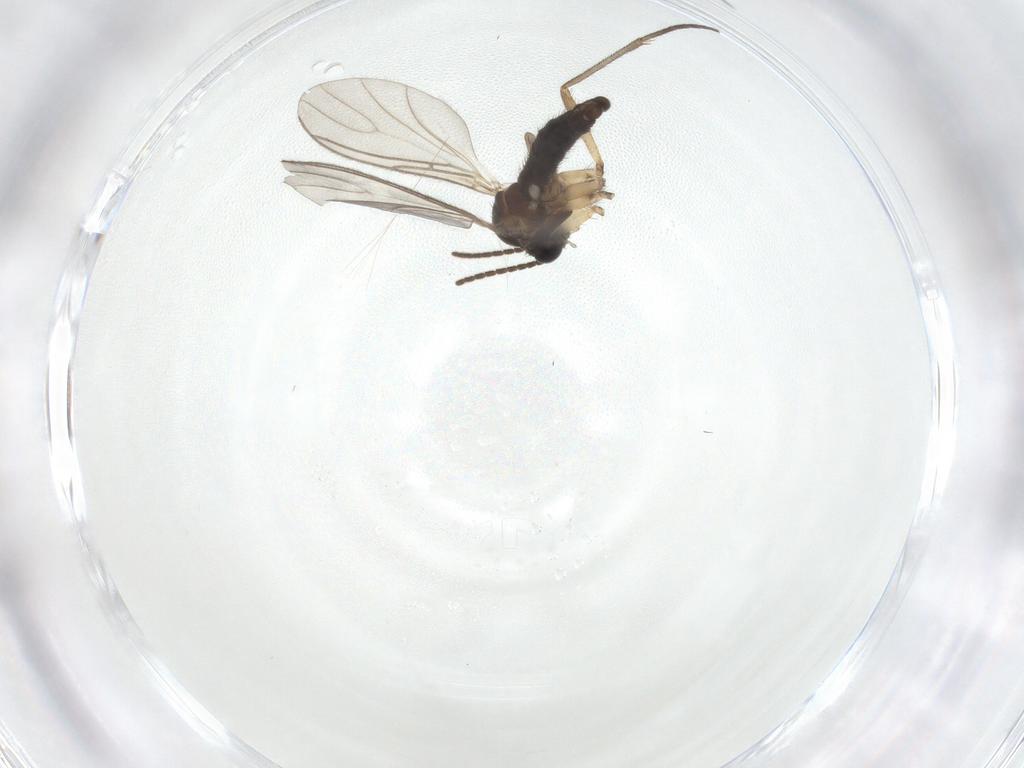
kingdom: Animalia
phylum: Arthropoda
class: Insecta
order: Diptera
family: Sciaridae
